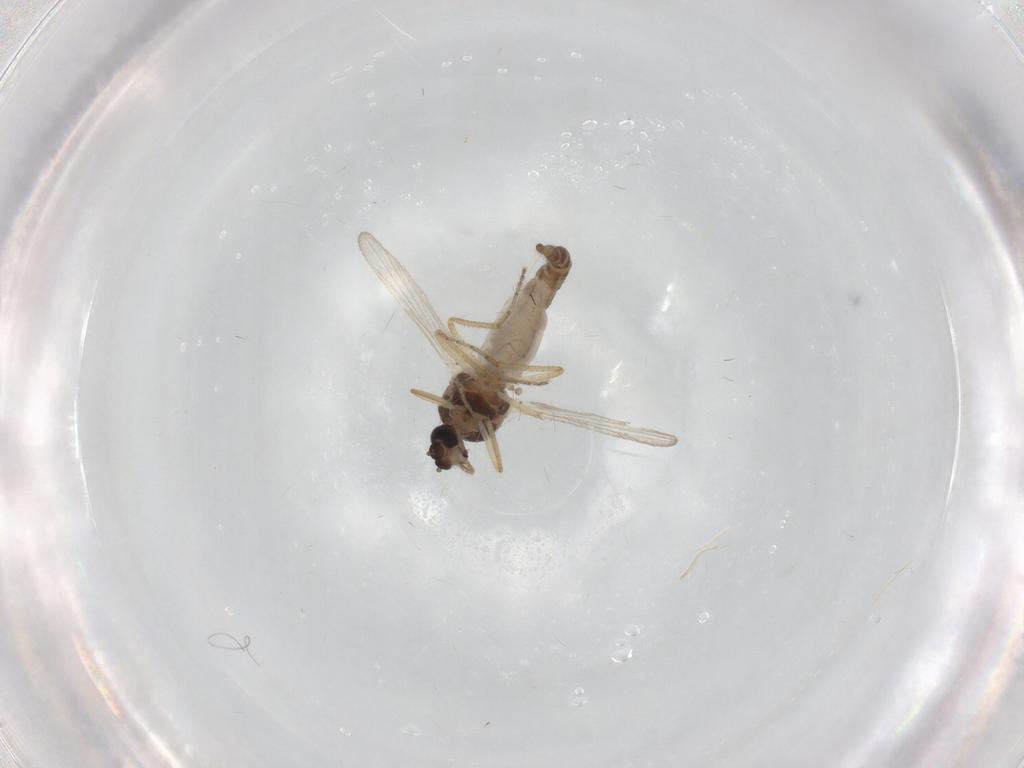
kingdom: Animalia
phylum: Arthropoda
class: Insecta
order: Diptera
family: Ceratopogonidae
